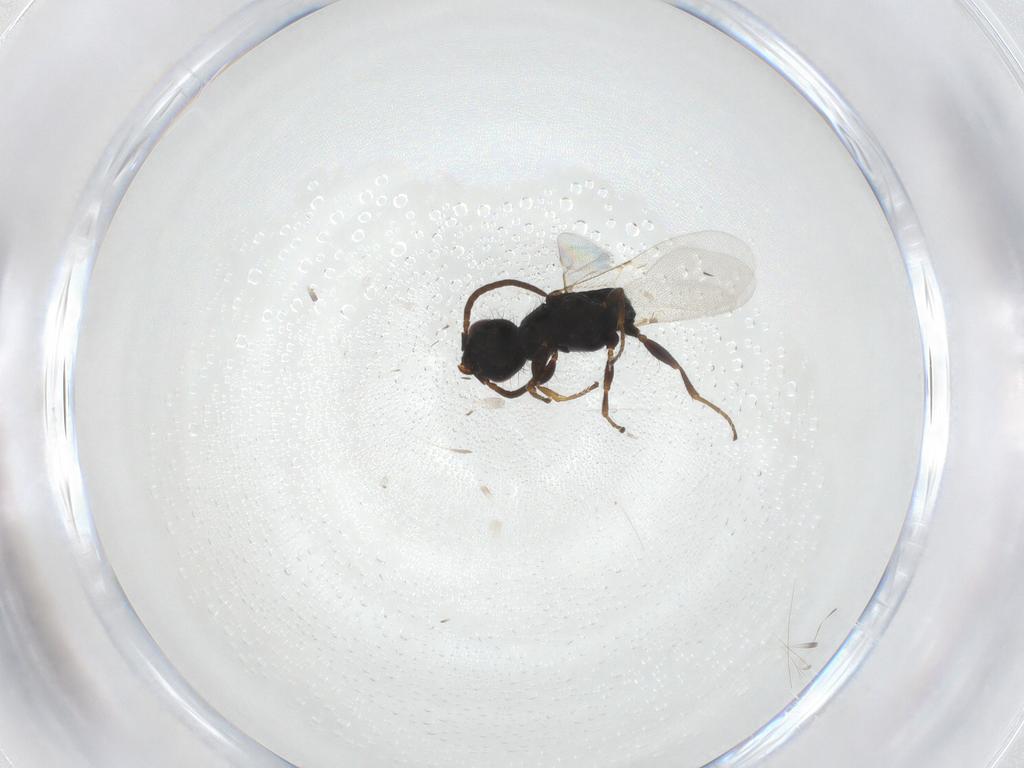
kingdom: Animalia
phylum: Arthropoda
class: Insecta
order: Hymenoptera
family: Bethylidae
